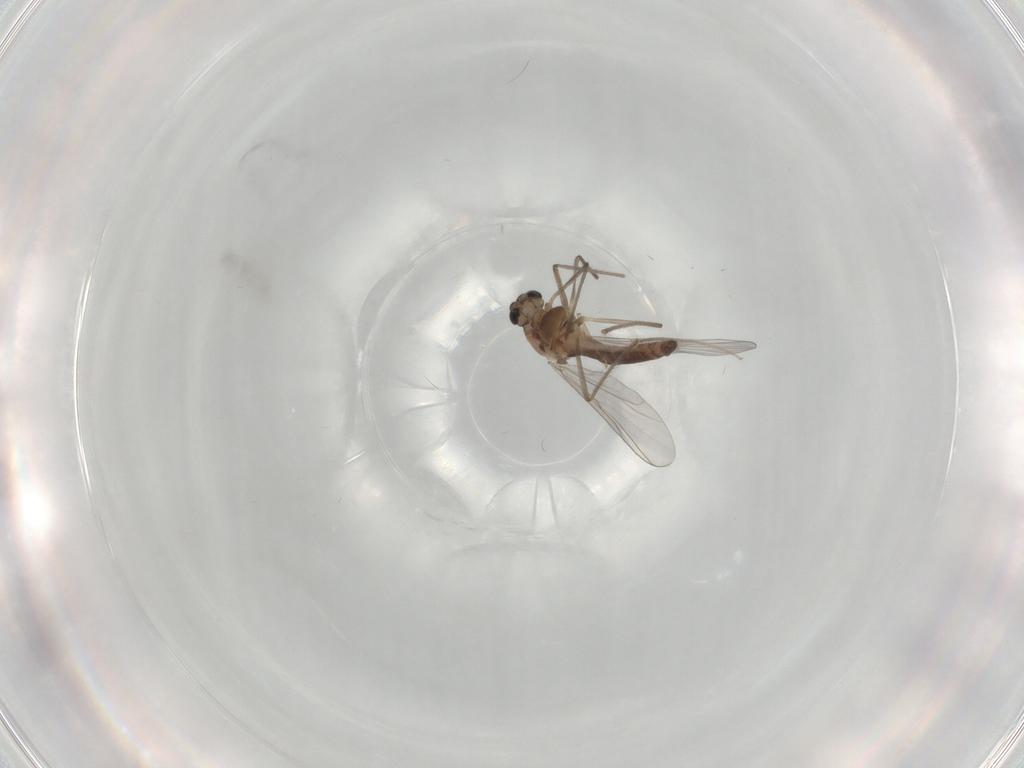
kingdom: Animalia
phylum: Arthropoda
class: Insecta
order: Diptera
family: Chironomidae
